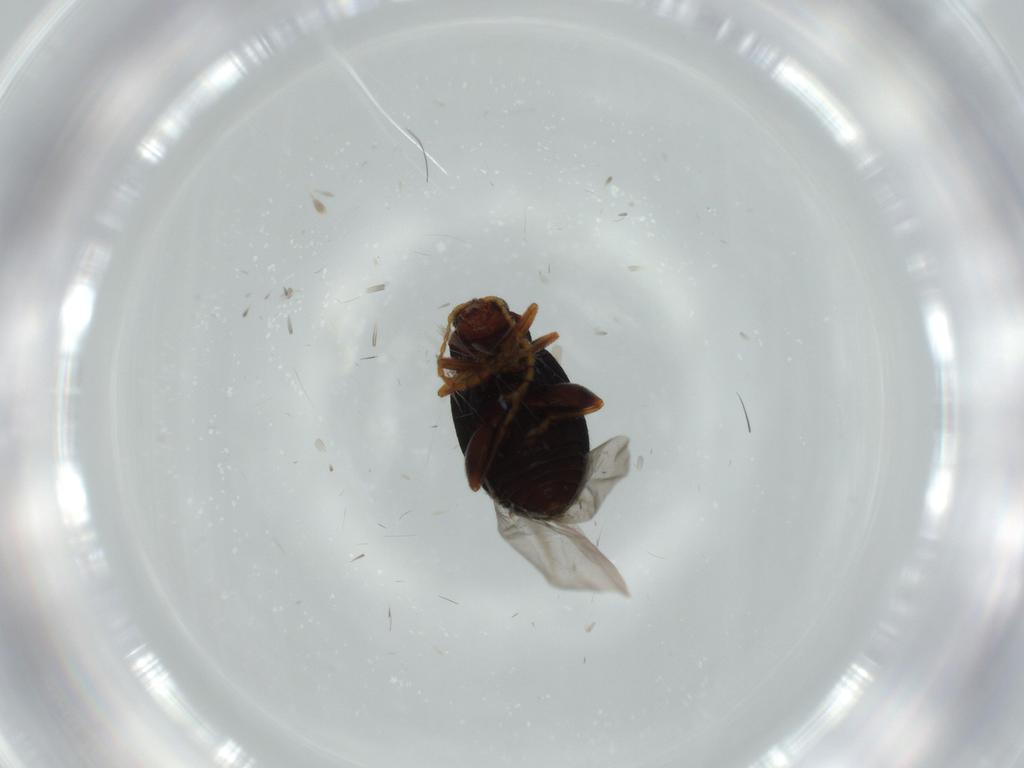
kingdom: Animalia
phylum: Arthropoda
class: Insecta
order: Coleoptera
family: Chrysomelidae
